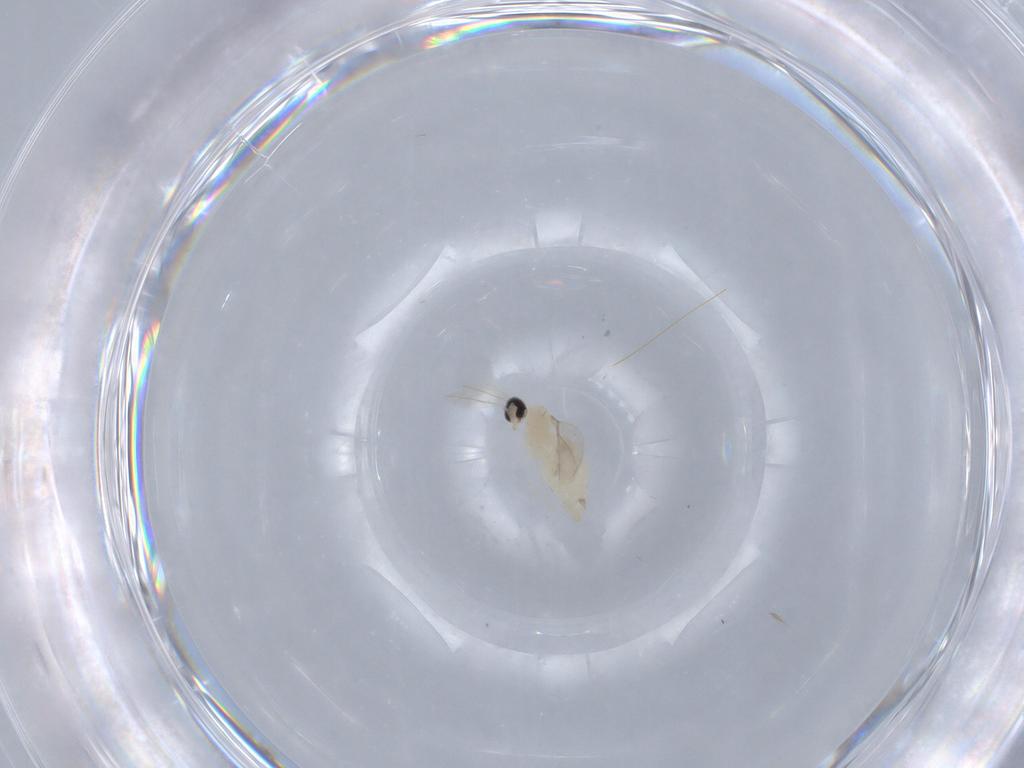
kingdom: Animalia
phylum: Arthropoda
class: Insecta
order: Diptera
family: Cecidomyiidae
